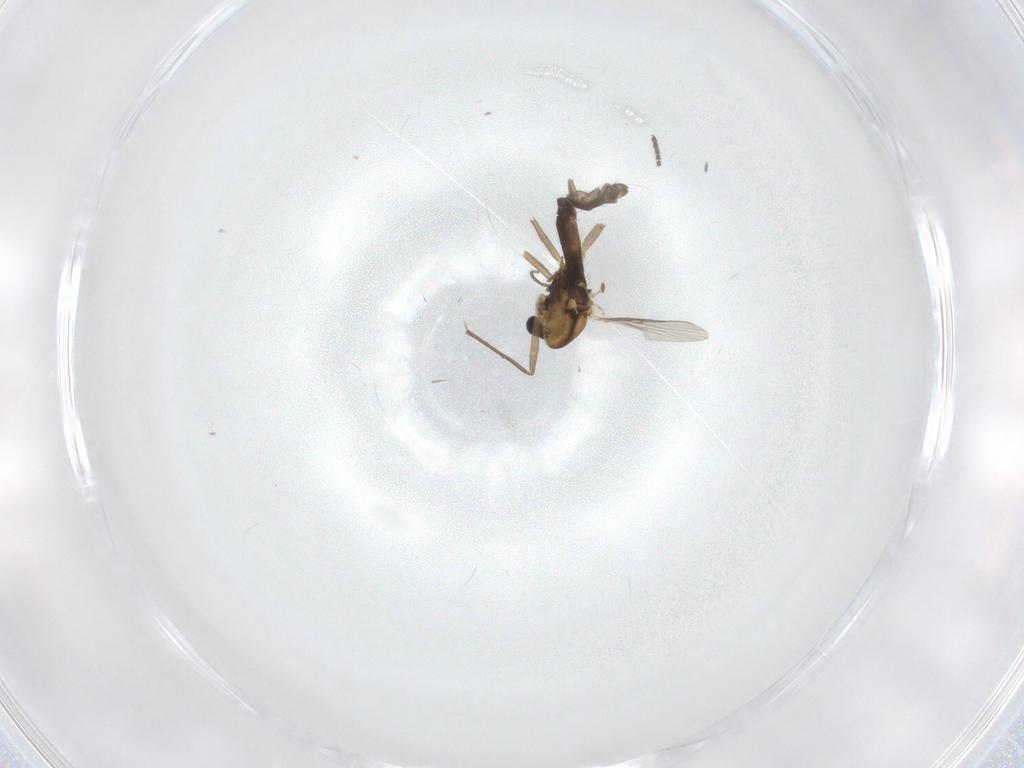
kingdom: Animalia
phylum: Arthropoda
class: Insecta
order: Diptera
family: Chironomidae
